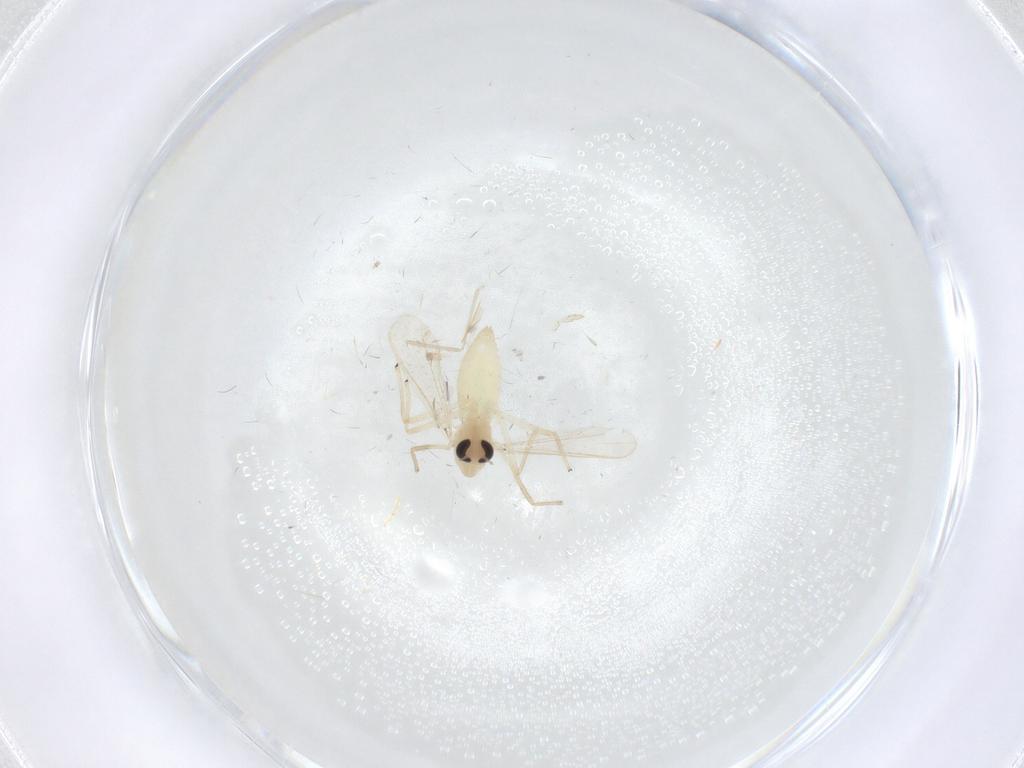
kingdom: Animalia
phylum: Arthropoda
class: Insecta
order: Diptera
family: Chironomidae
